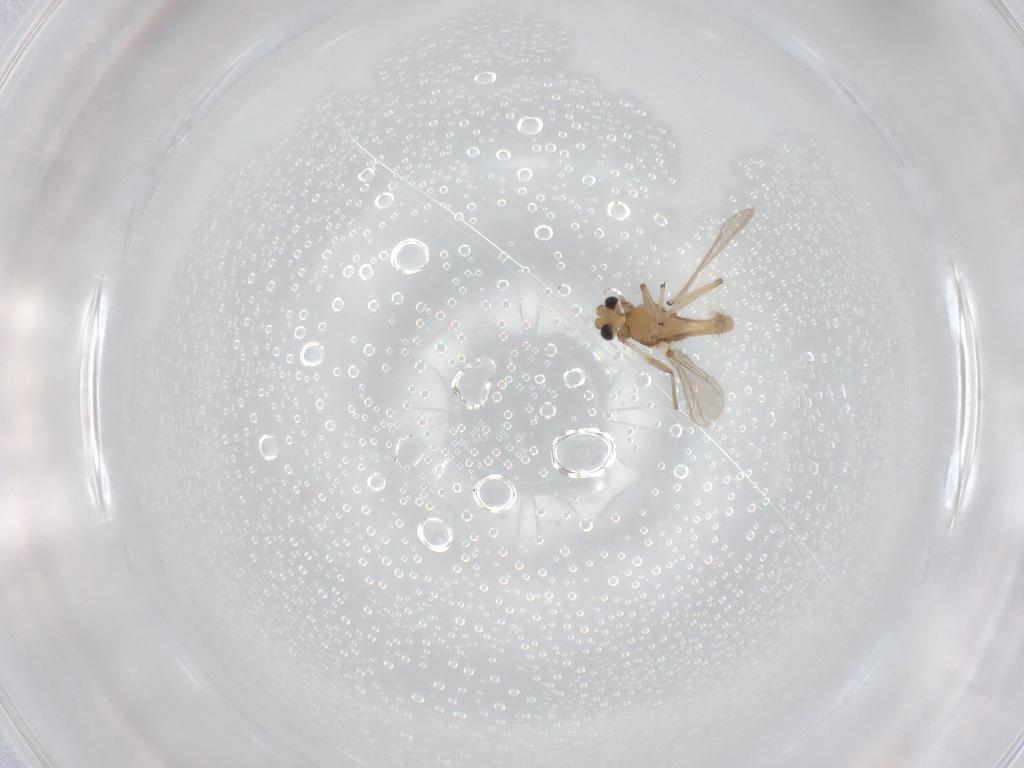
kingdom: Animalia
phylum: Arthropoda
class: Insecta
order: Diptera
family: Chironomidae
